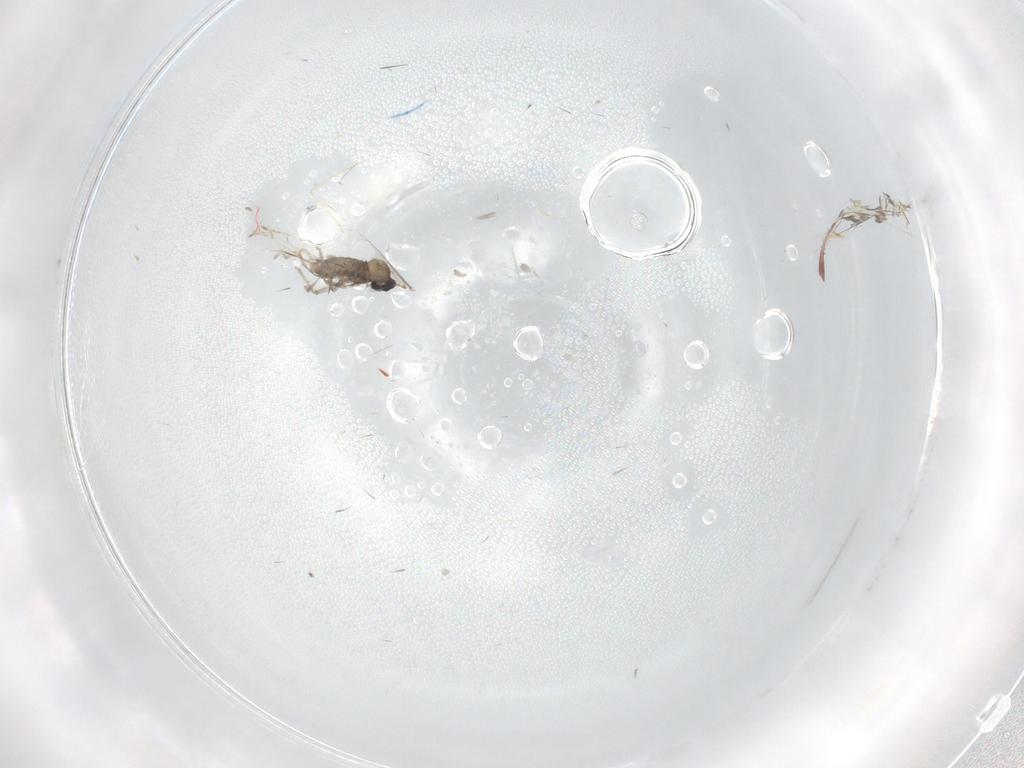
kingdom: Animalia
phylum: Arthropoda
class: Insecta
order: Diptera
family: Cecidomyiidae
